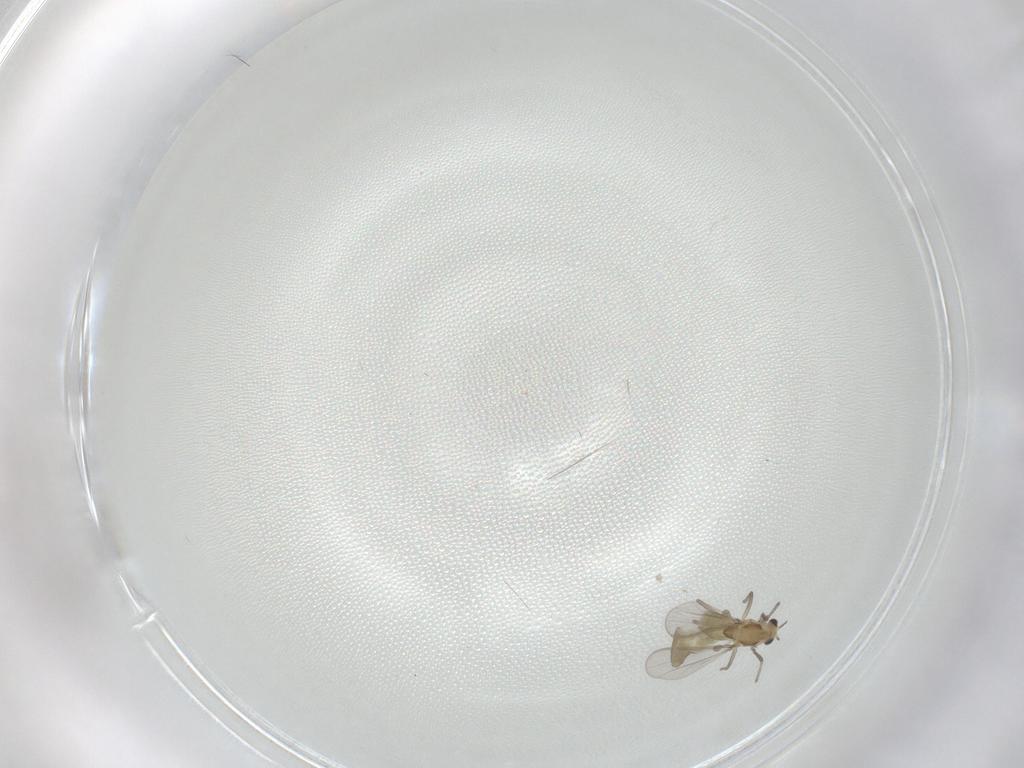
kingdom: Animalia
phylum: Arthropoda
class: Insecta
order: Diptera
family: Chironomidae
